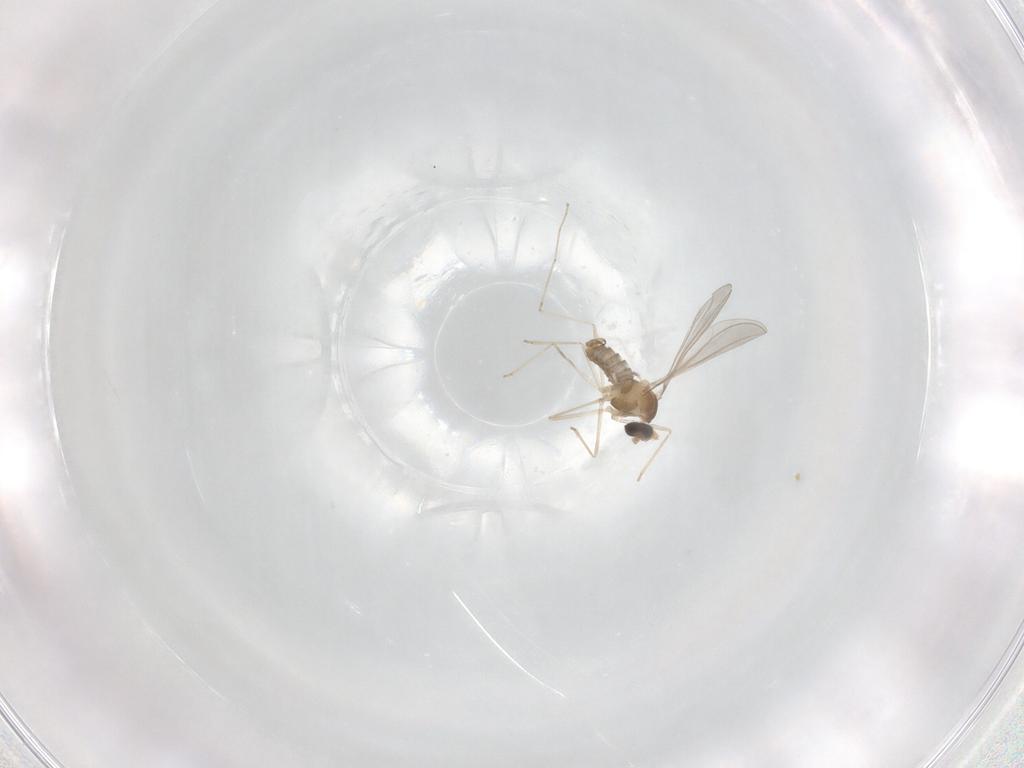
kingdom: Animalia
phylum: Arthropoda
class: Insecta
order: Diptera
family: Cecidomyiidae
